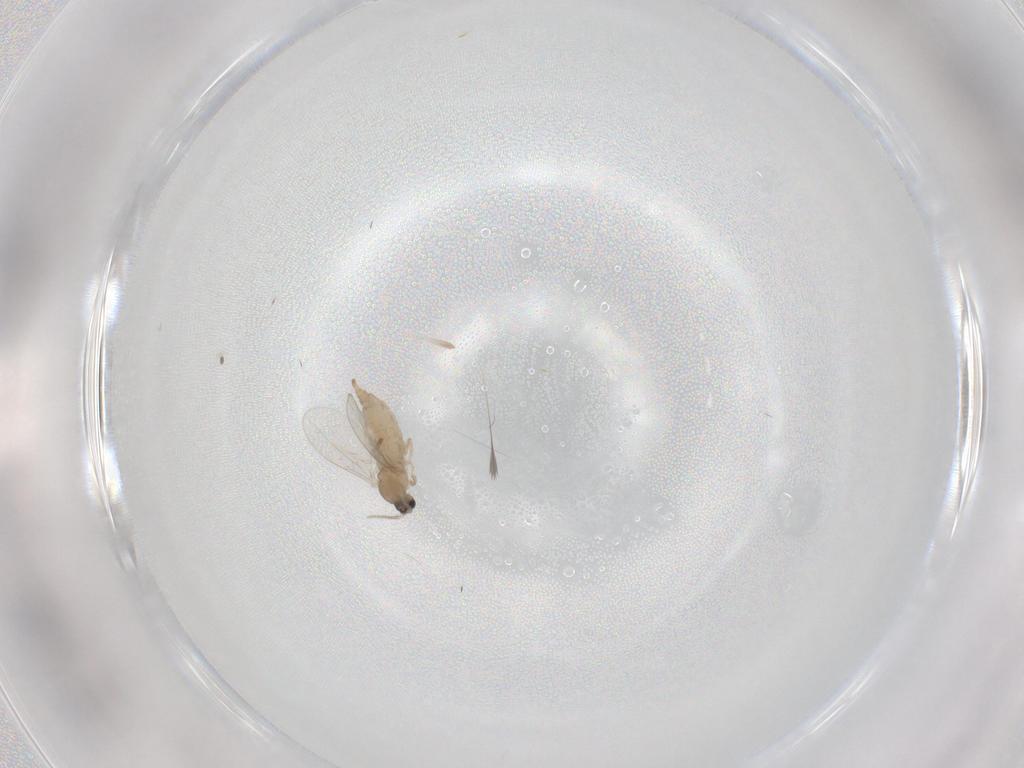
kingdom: Animalia
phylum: Arthropoda
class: Insecta
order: Diptera
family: Cecidomyiidae
